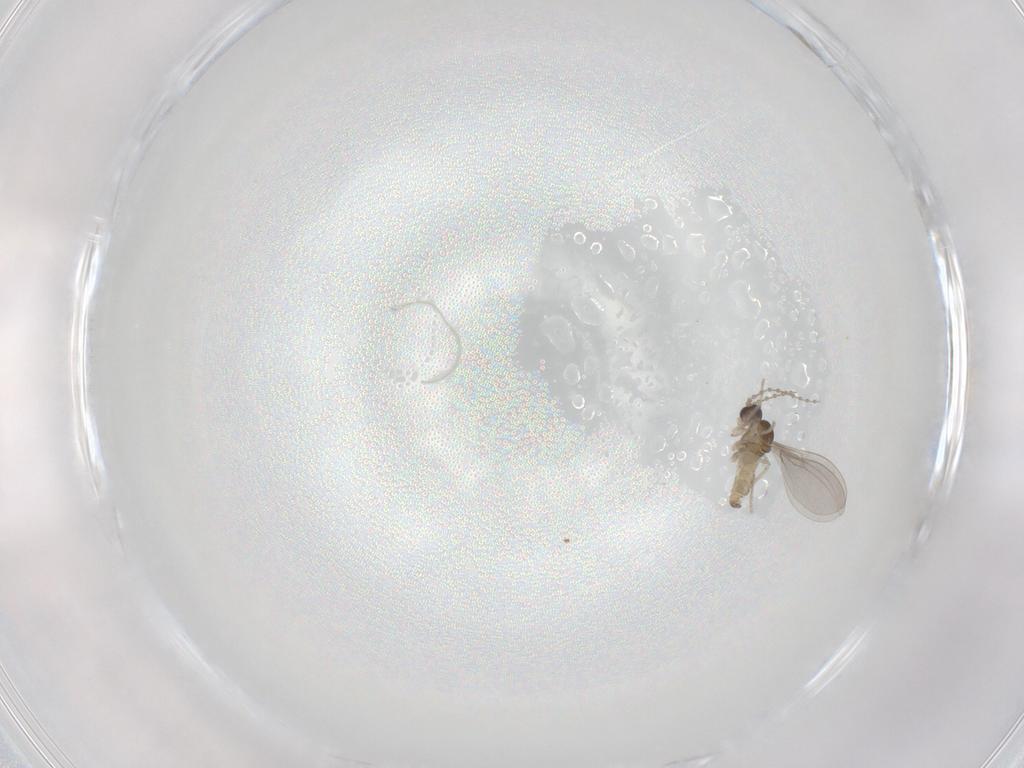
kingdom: Animalia
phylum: Arthropoda
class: Insecta
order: Diptera
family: Cecidomyiidae
